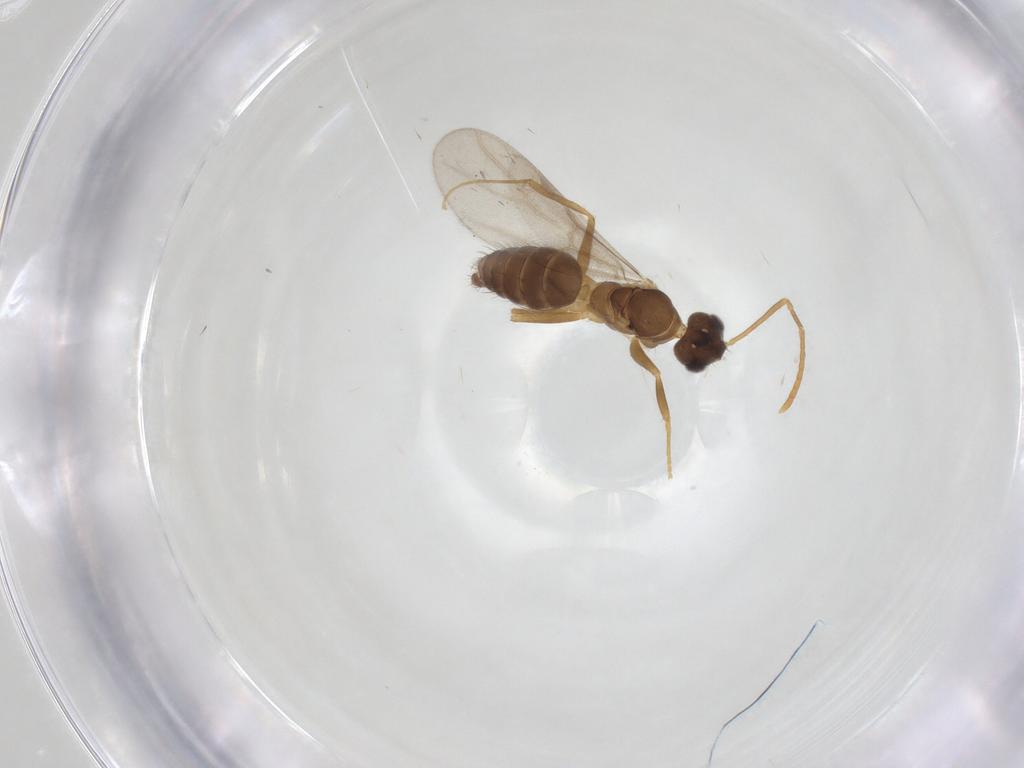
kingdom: Animalia
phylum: Arthropoda
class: Insecta
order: Hymenoptera
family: Formicidae
